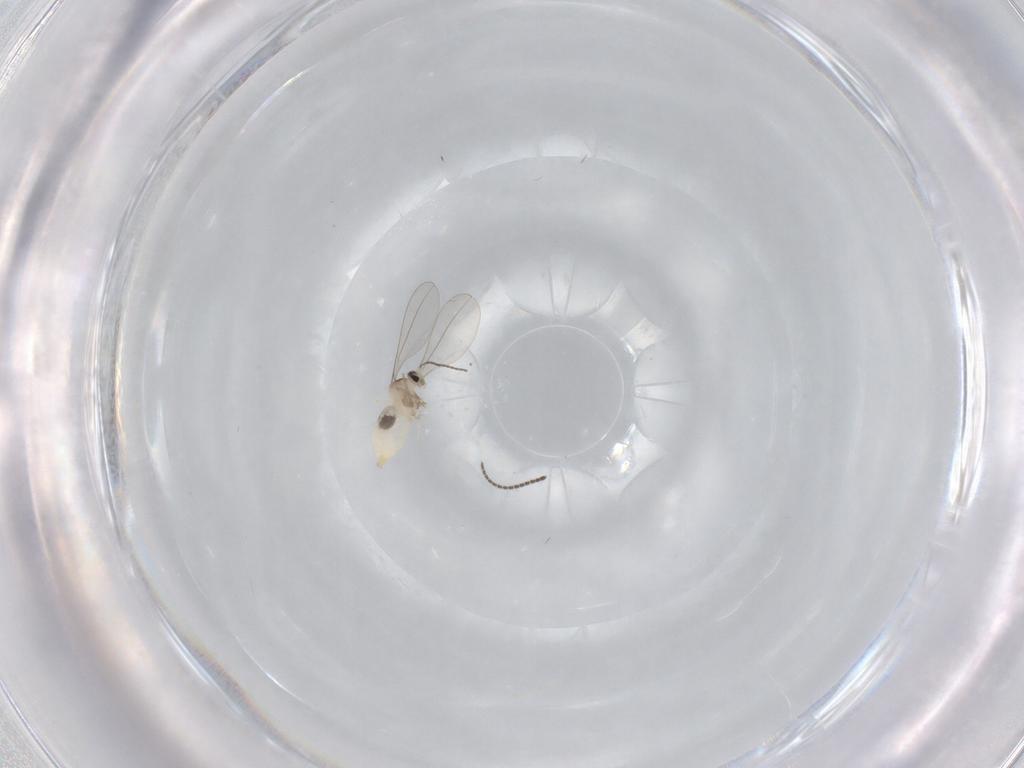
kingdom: Animalia
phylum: Arthropoda
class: Insecta
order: Diptera
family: Cecidomyiidae
